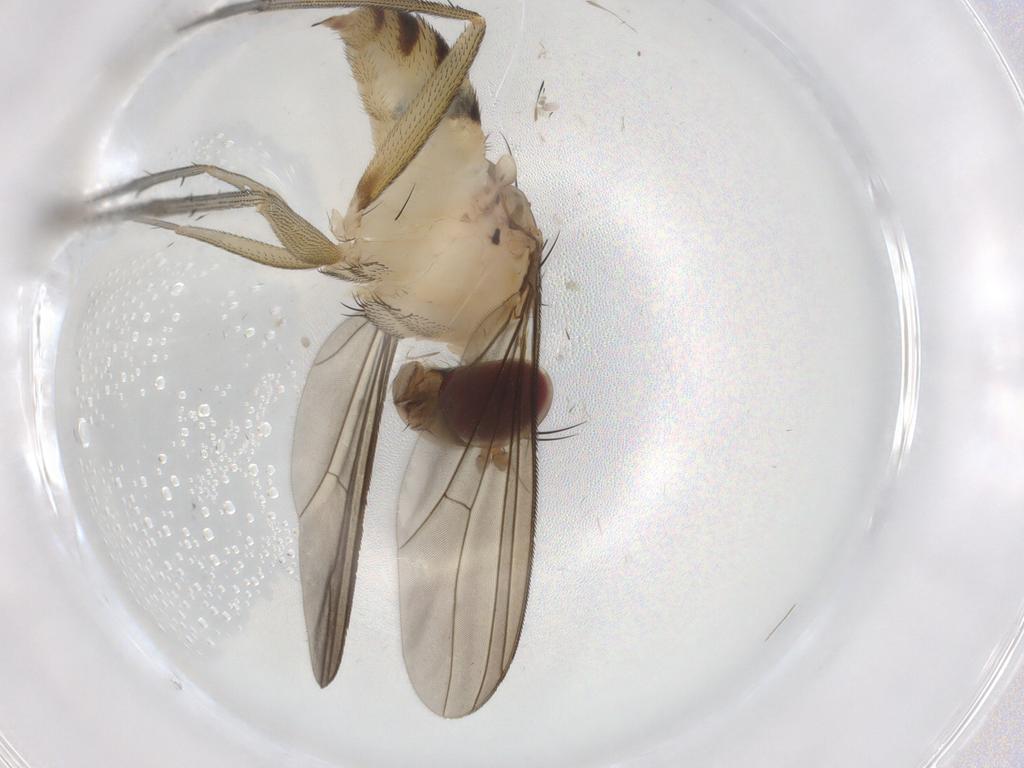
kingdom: Animalia
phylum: Arthropoda
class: Insecta
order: Diptera
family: Dolichopodidae
